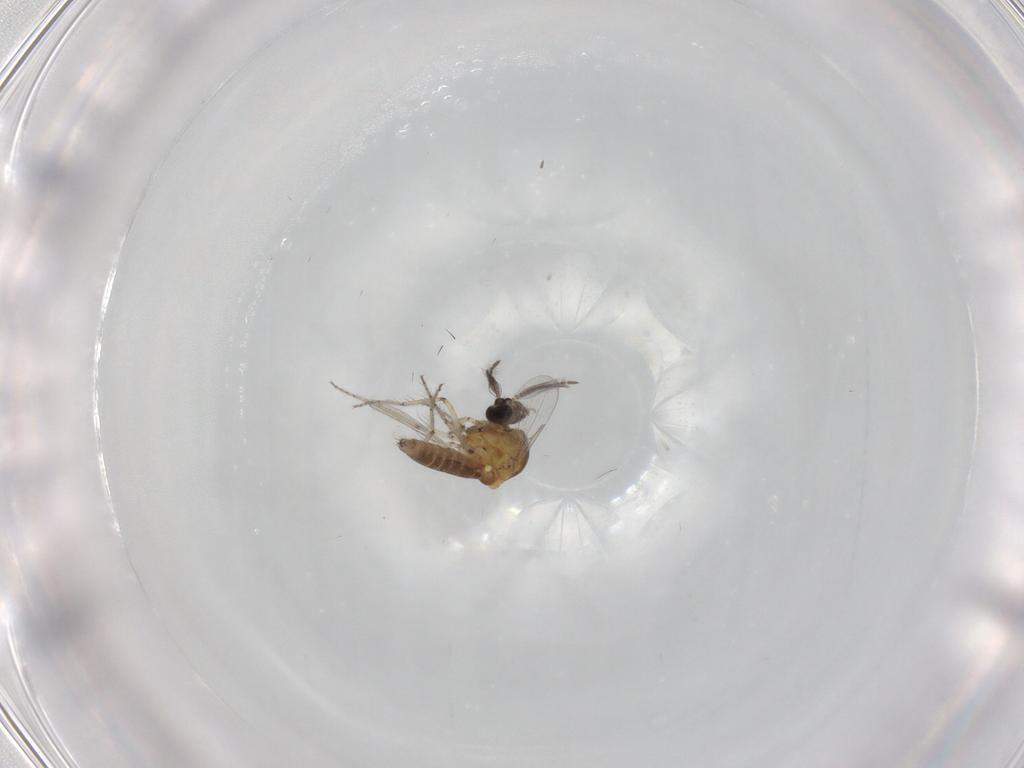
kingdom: Animalia
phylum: Arthropoda
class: Insecta
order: Diptera
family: Ceratopogonidae
